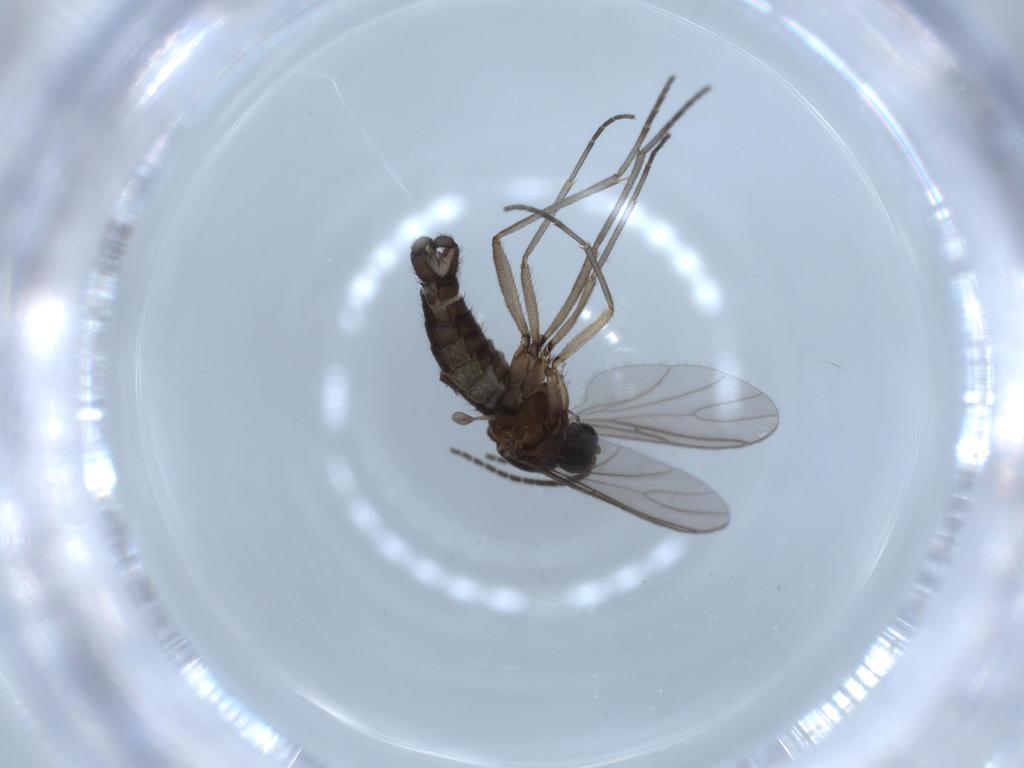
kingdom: Animalia
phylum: Arthropoda
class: Insecta
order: Diptera
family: Sciaridae
